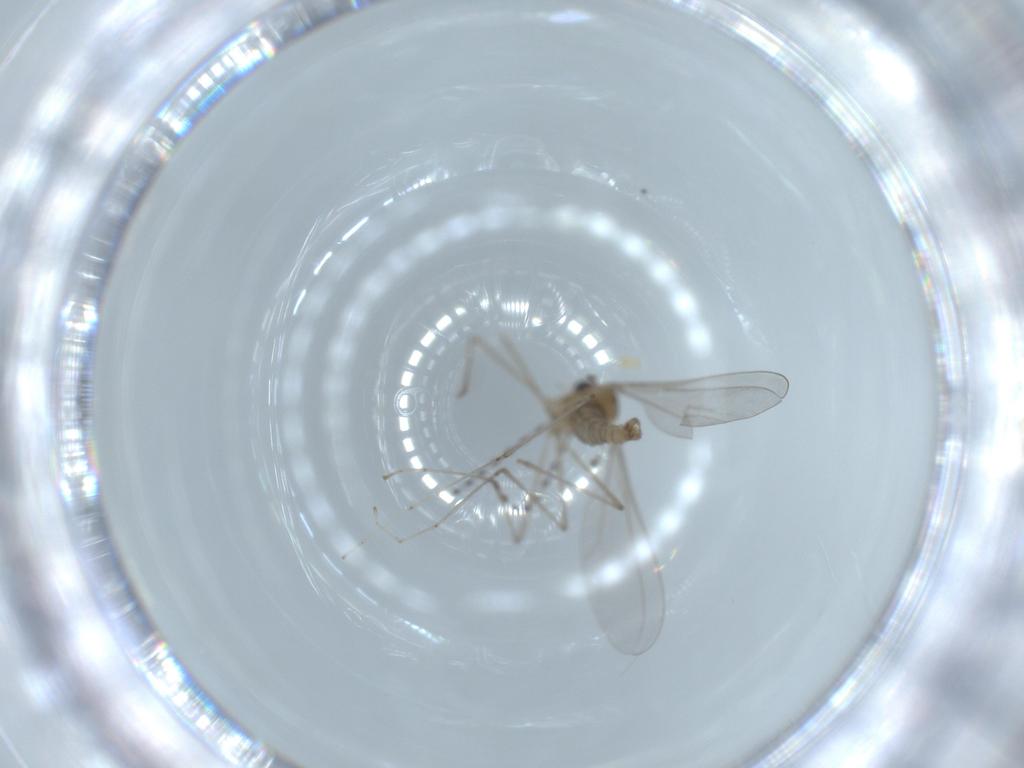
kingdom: Animalia
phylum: Arthropoda
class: Insecta
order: Diptera
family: Cecidomyiidae
